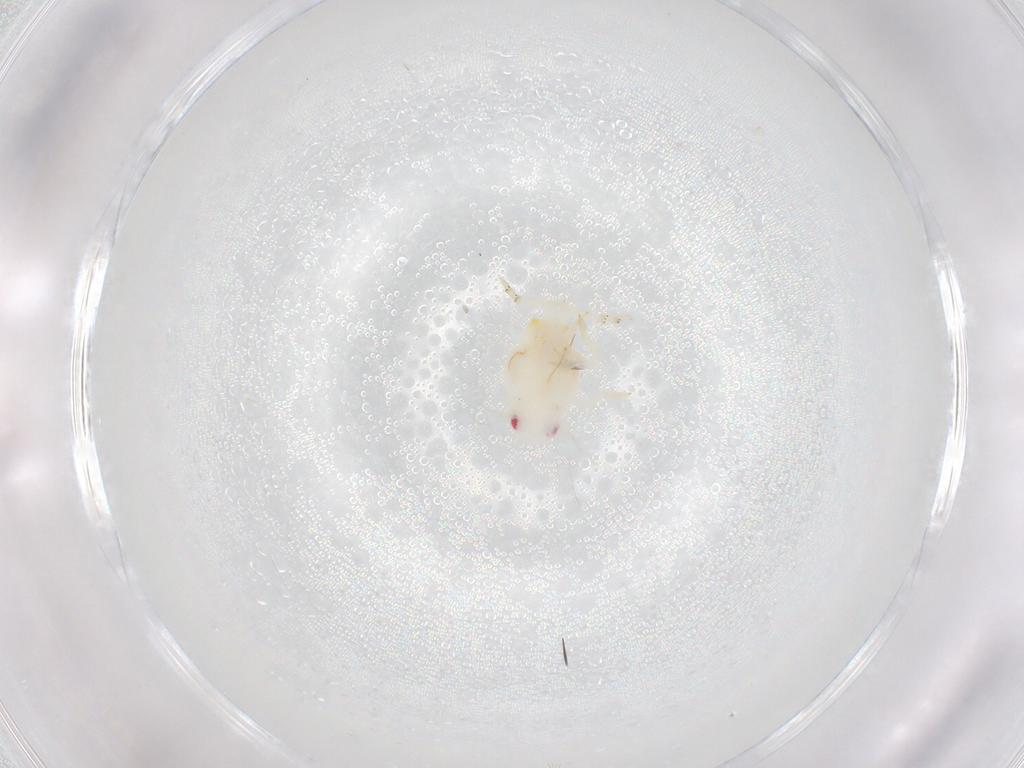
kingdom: Animalia
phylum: Arthropoda
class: Insecta
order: Hemiptera
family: Flatidae
